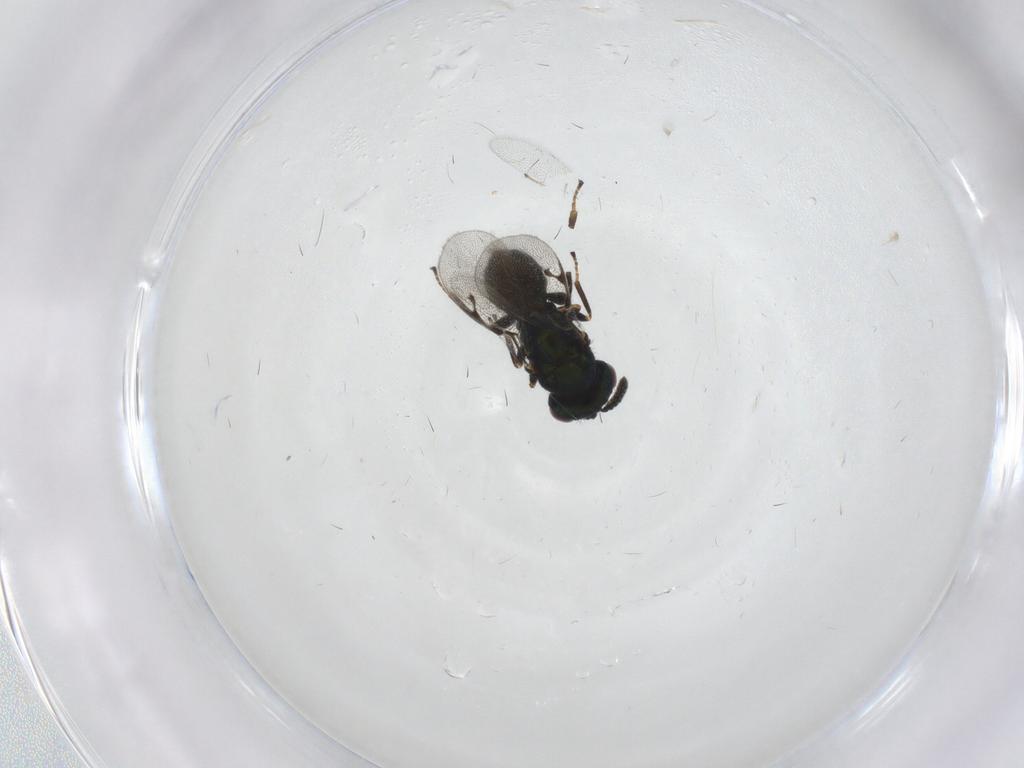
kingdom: Animalia
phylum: Arthropoda
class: Insecta
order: Hymenoptera
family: Pirenidae
